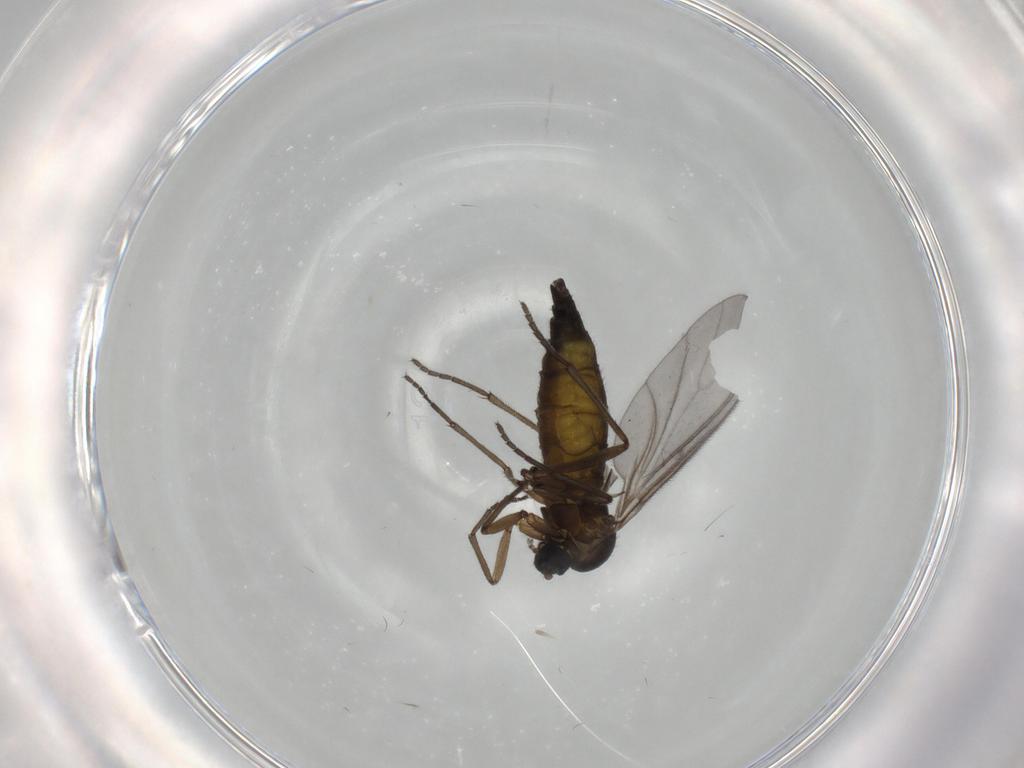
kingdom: Animalia
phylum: Arthropoda
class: Insecta
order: Diptera
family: Sciaridae
